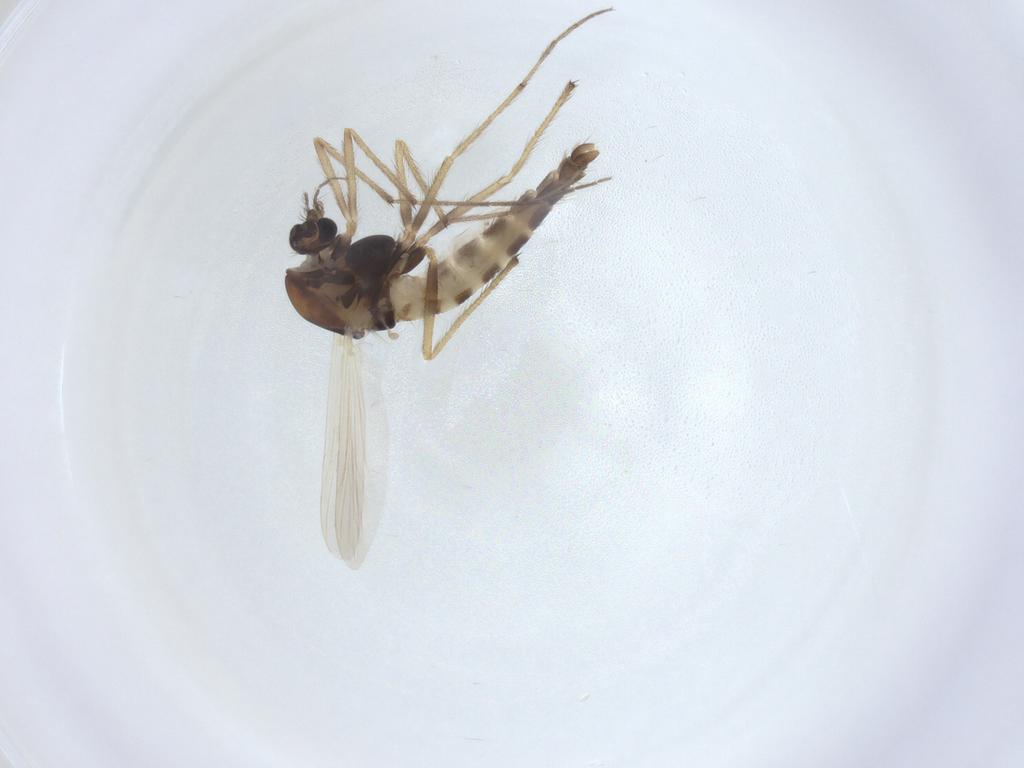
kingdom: Animalia
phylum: Arthropoda
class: Insecta
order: Diptera
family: Chironomidae
